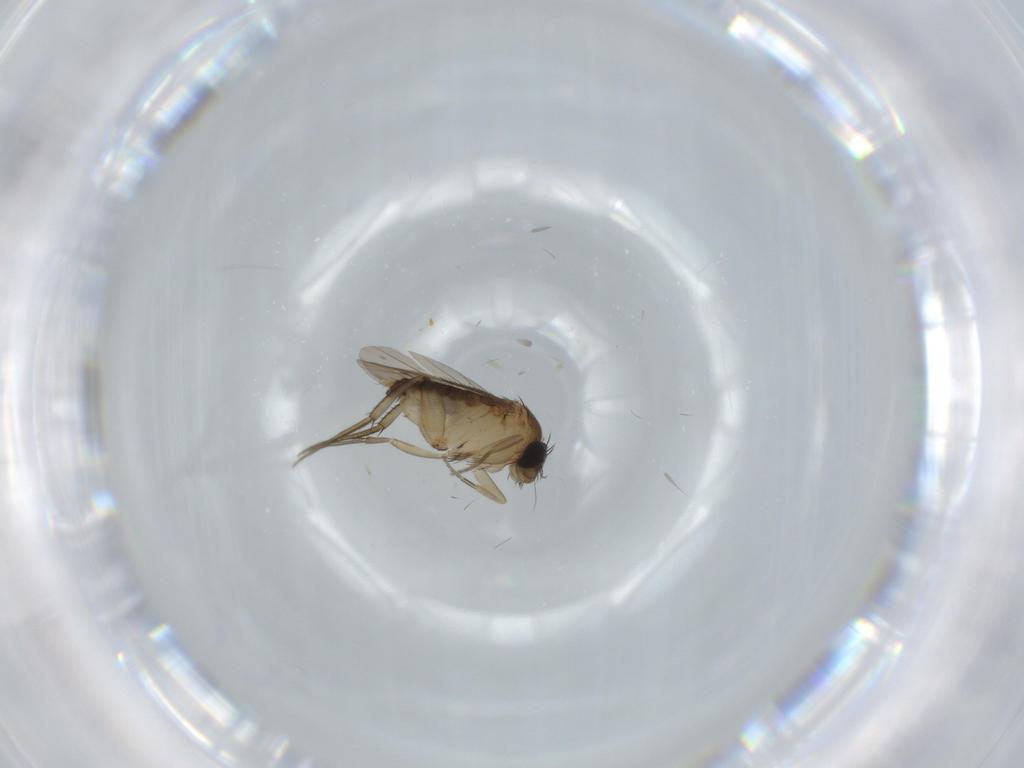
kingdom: Animalia
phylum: Arthropoda
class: Insecta
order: Diptera
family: Phoridae
